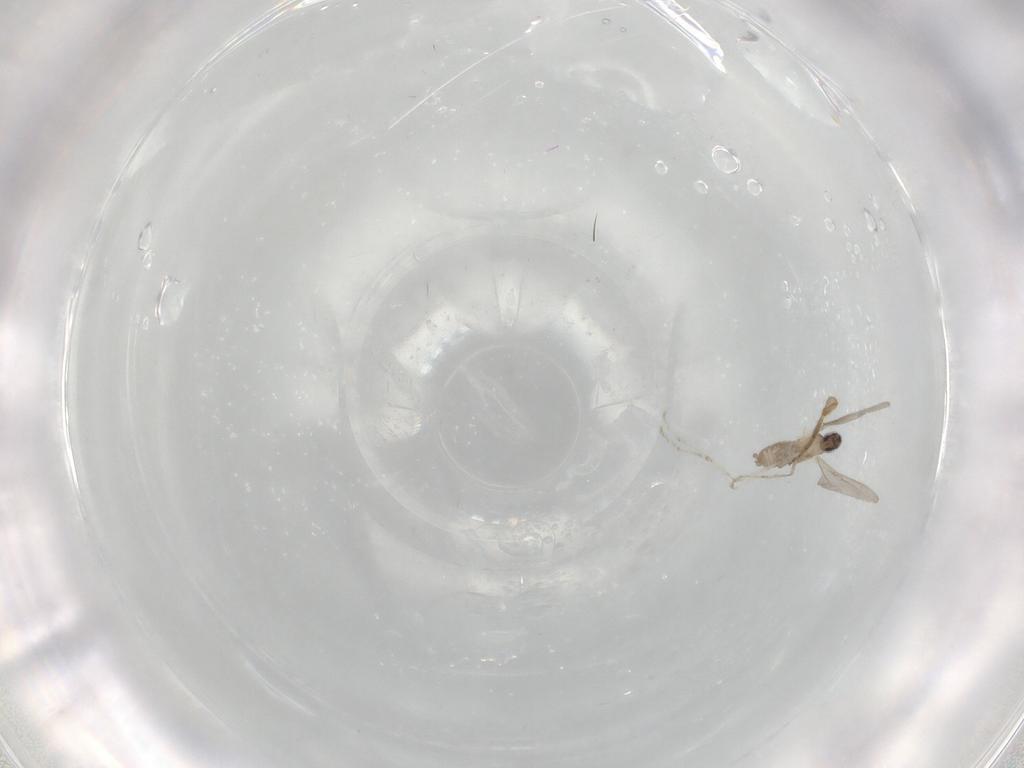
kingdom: Animalia
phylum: Arthropoda
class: Insecta
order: Diptera
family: Cecidomyiidae
